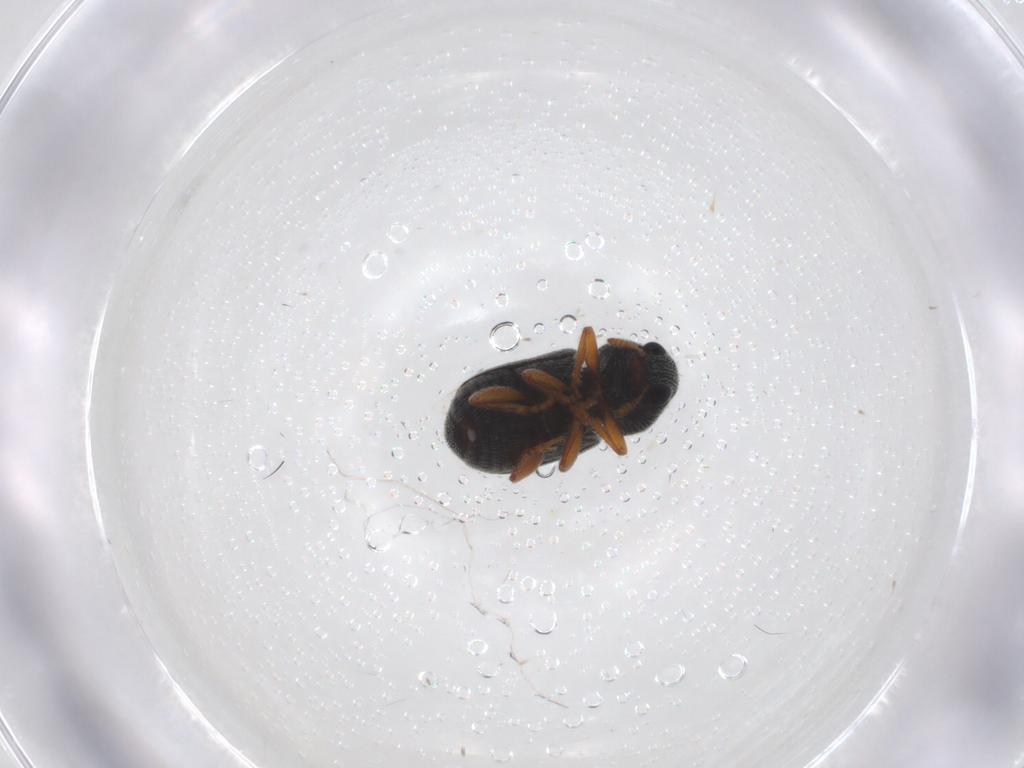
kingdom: Animalia
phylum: Arthropoda
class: Insecta
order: Coleoptera
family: Anthribidae
